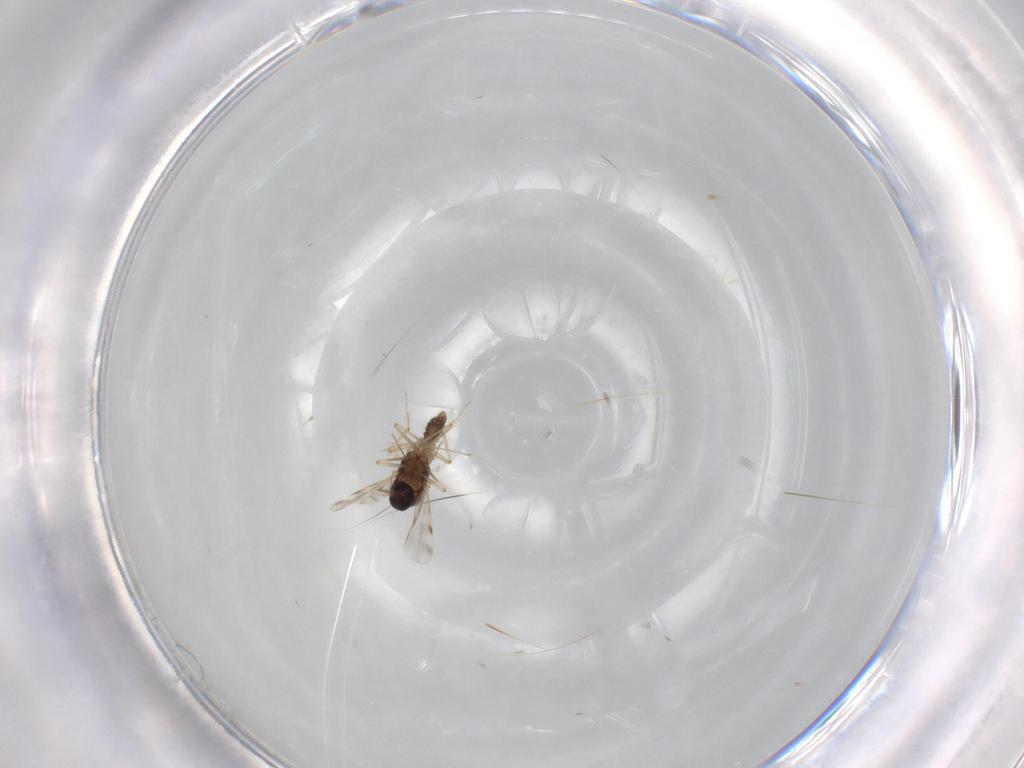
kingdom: Animalia
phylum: Arthropoda
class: Insecta
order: Diptera
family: Ceratopogonidae
